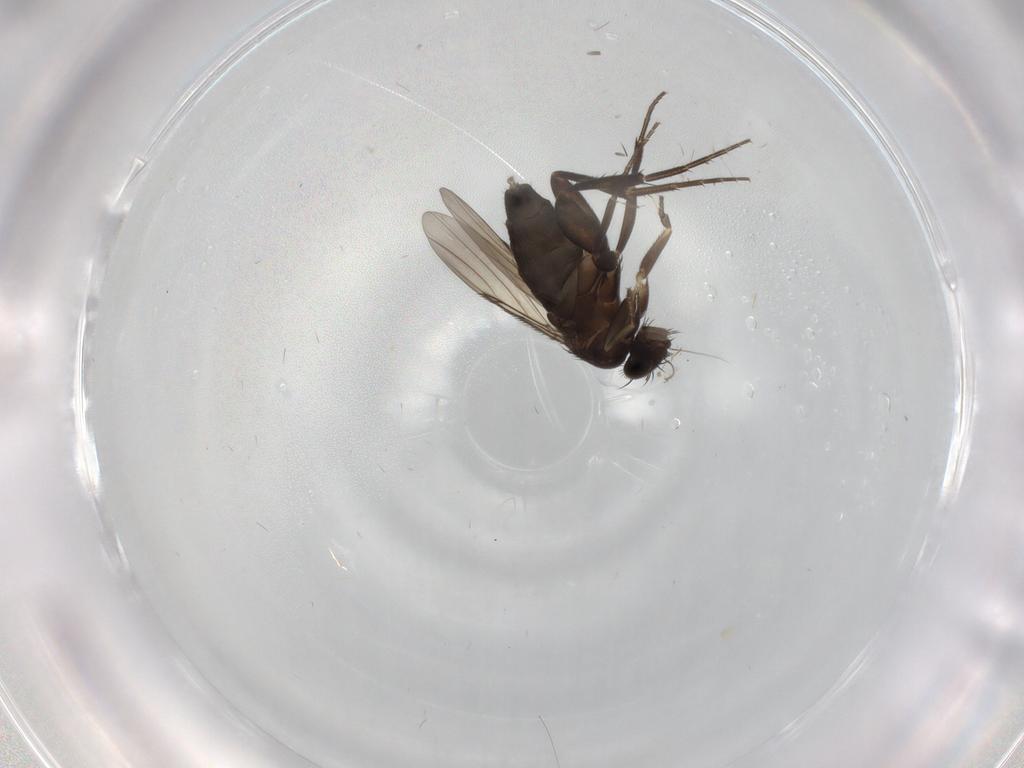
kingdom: Animalia
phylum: Arthropoda
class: Insecta
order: Diptera
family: Phoridae
